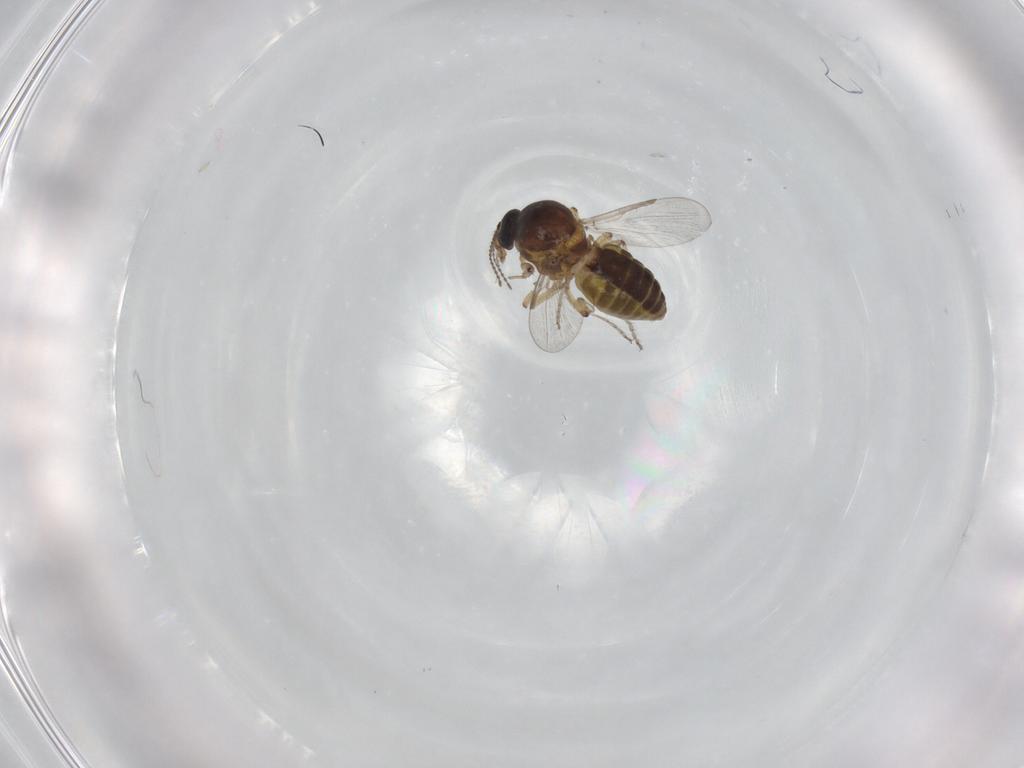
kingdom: Animalia
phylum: Arthropoda
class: Insecta
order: Diptera
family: Ceratopogonidae
